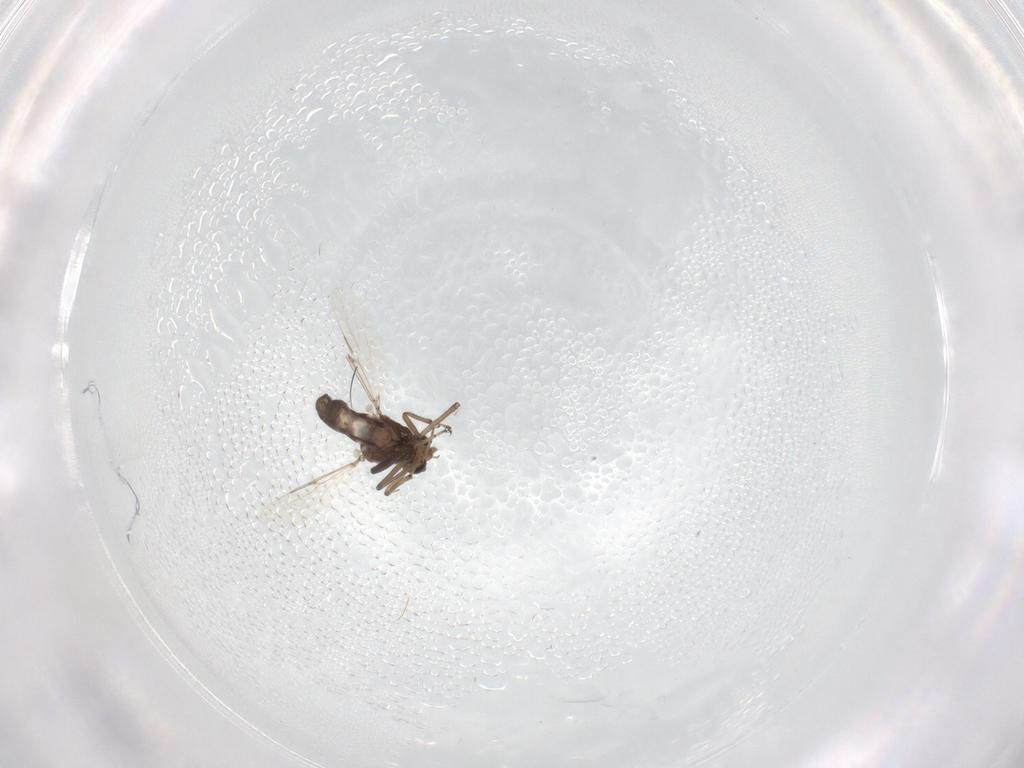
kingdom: Animalia
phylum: Arthropoda
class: Insecta
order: Diptera
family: Ceratopogonidae
